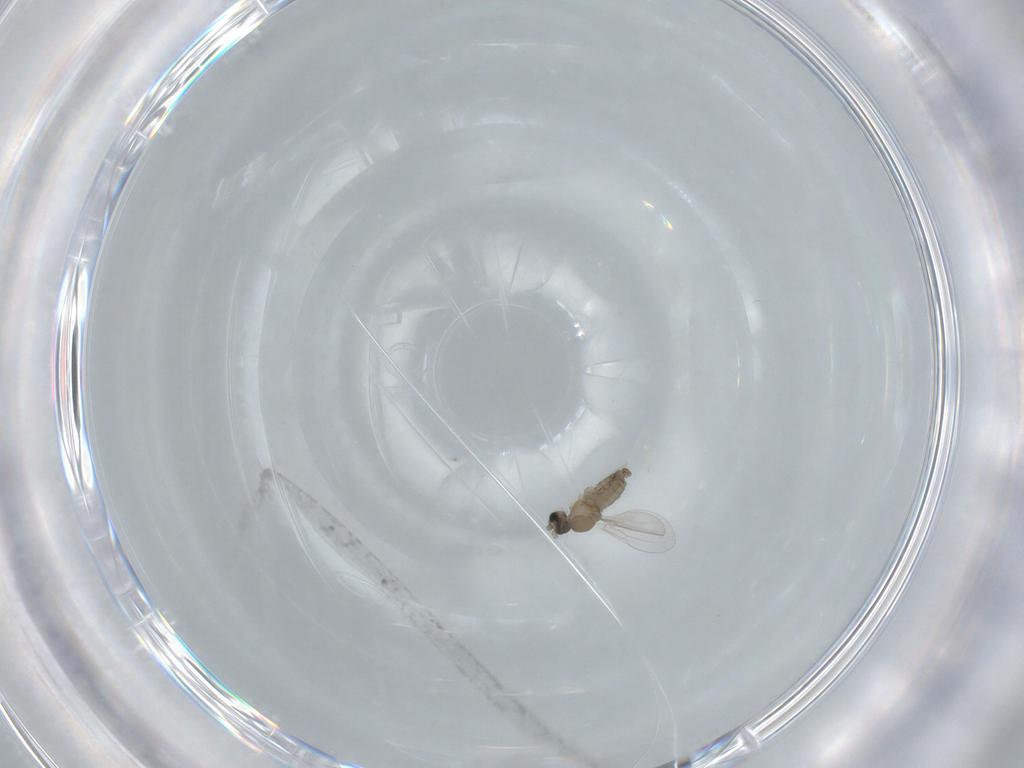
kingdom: Animalia
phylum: Arthropoda
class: Insecta
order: Diptera
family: Cecidomyiidae
